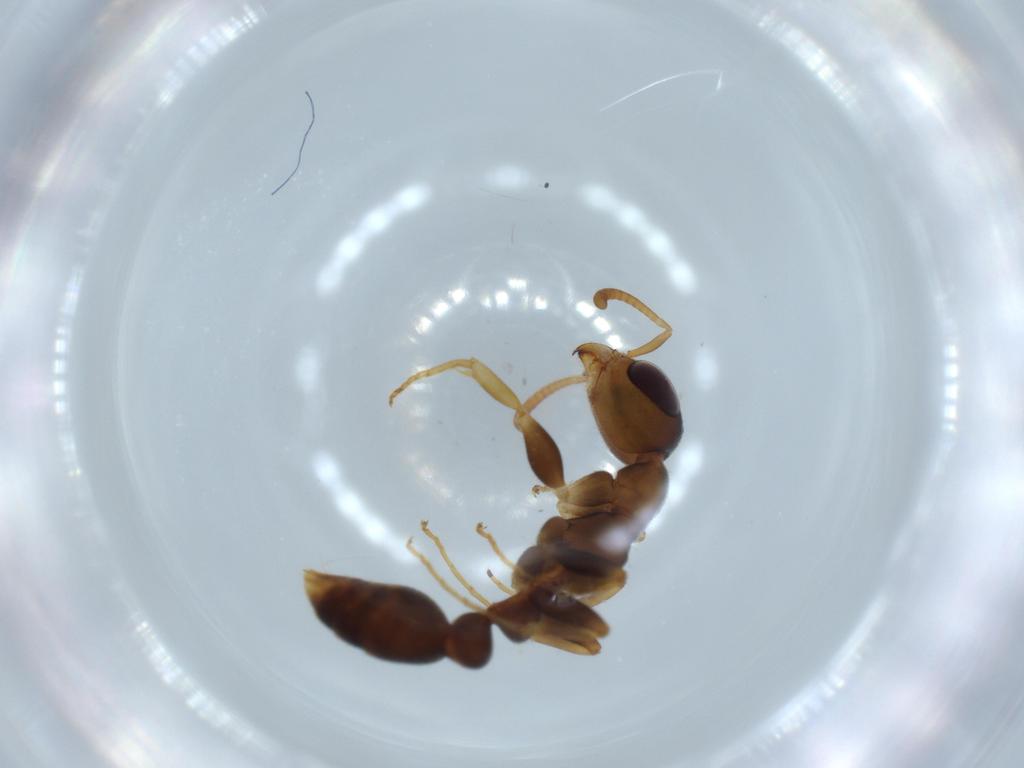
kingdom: Animalia
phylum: Arthropoda
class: Insecta
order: Hymenoptera
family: Formicidae
